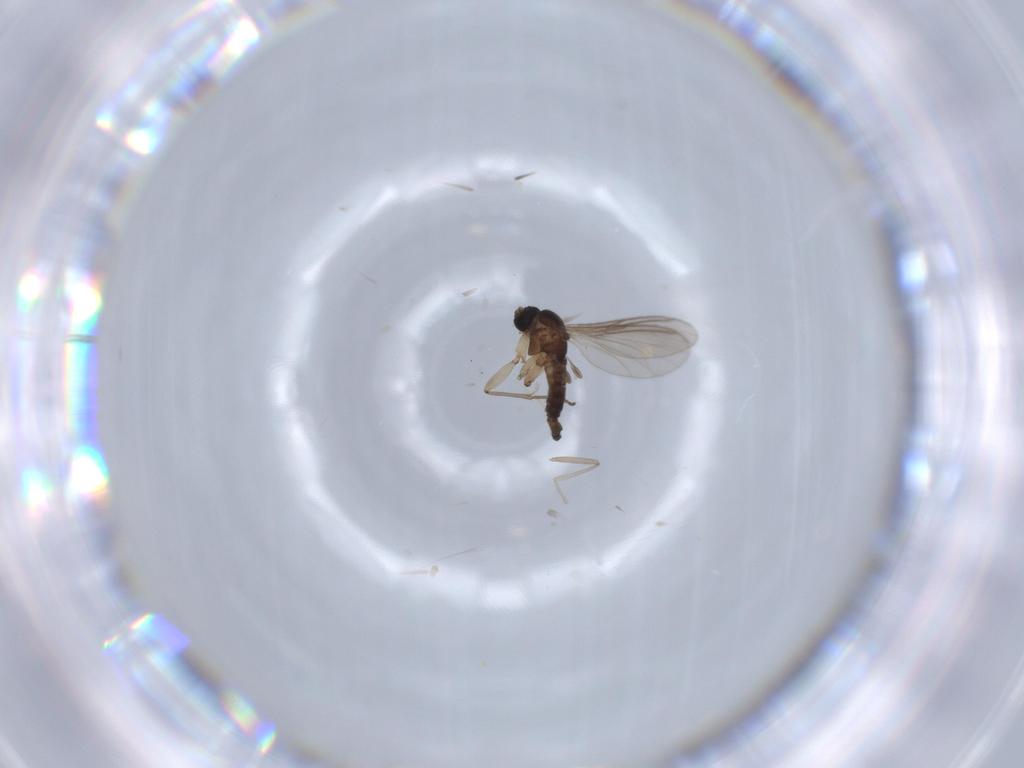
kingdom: Animalia
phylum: Arthropoda
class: Insecta
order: Diptera
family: Sciaridae
